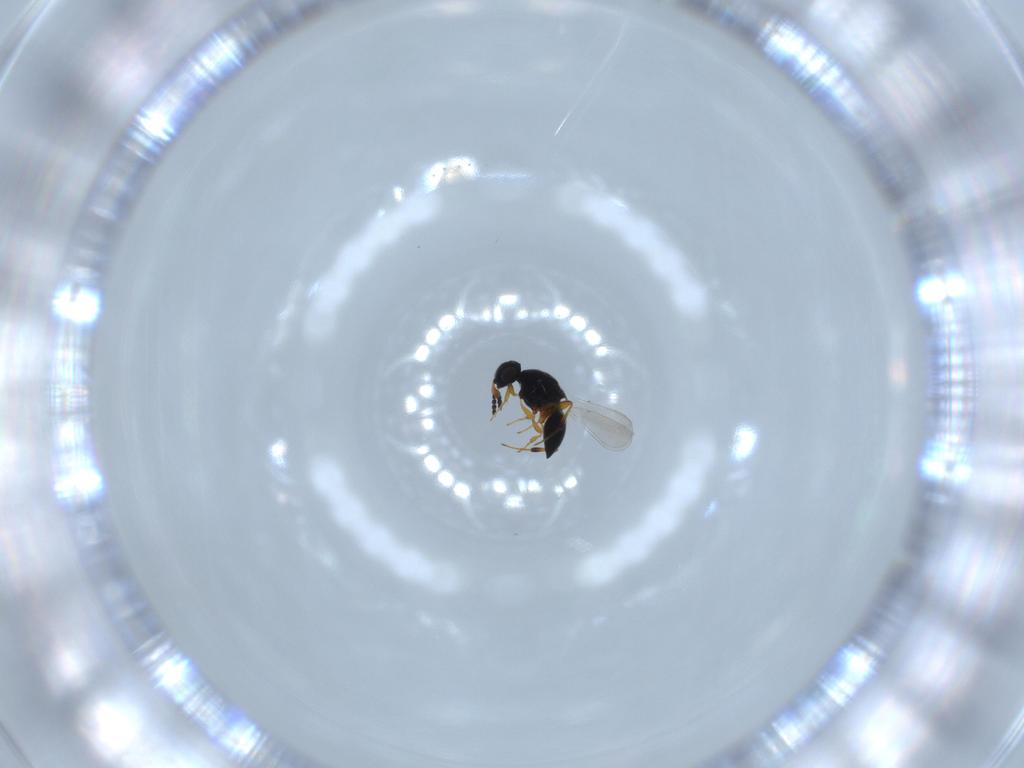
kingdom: Animalia
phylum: Arthropoda
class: Insecta
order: Hymenoptera
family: Platygastridae
